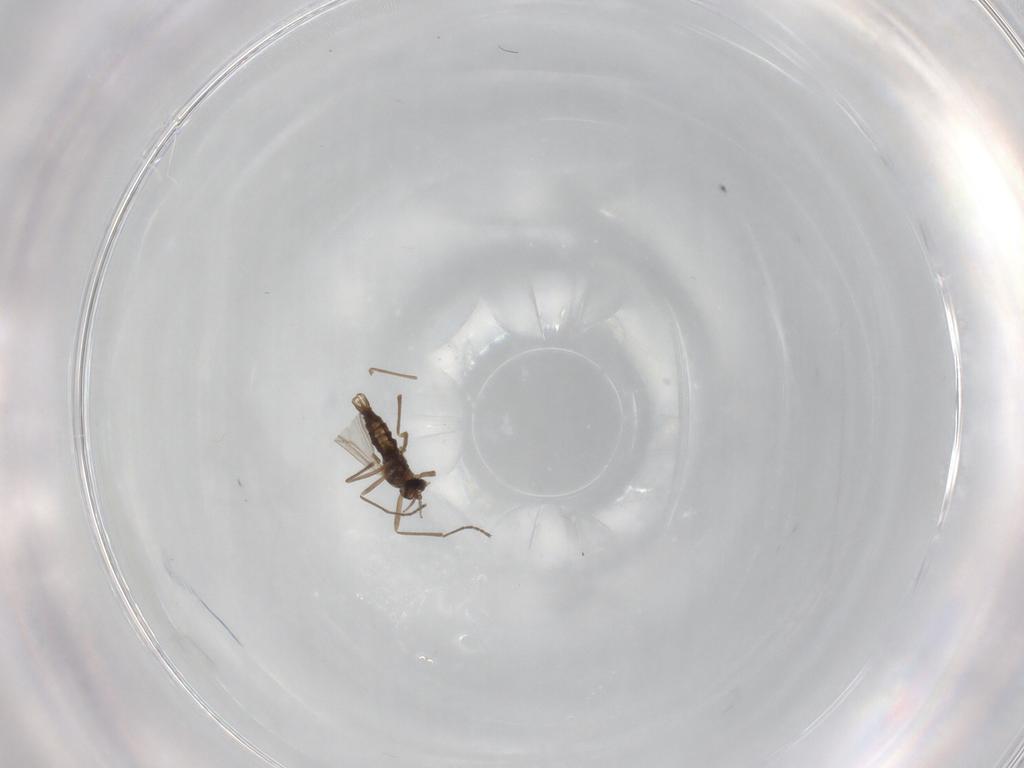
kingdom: Animalia
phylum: Arthropoda
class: Insecta
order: Diptera
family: Cecidomyiidae
